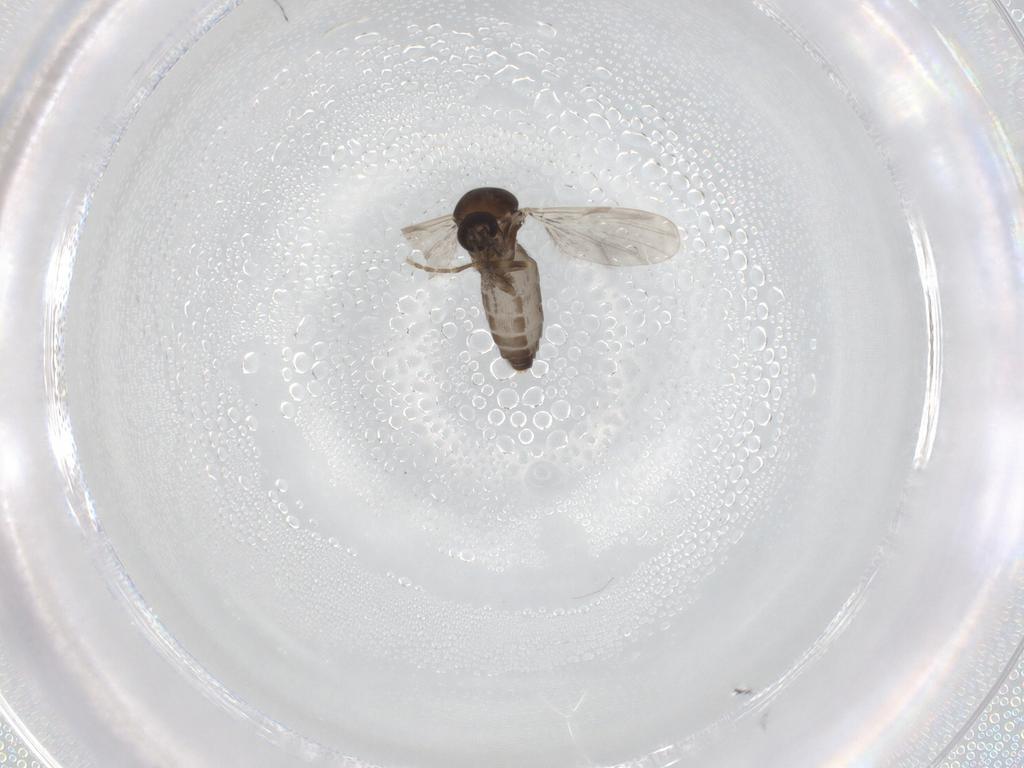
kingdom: Animalia
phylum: Arthropoda
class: Insecta
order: Diptera
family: Ceratopogonidae
